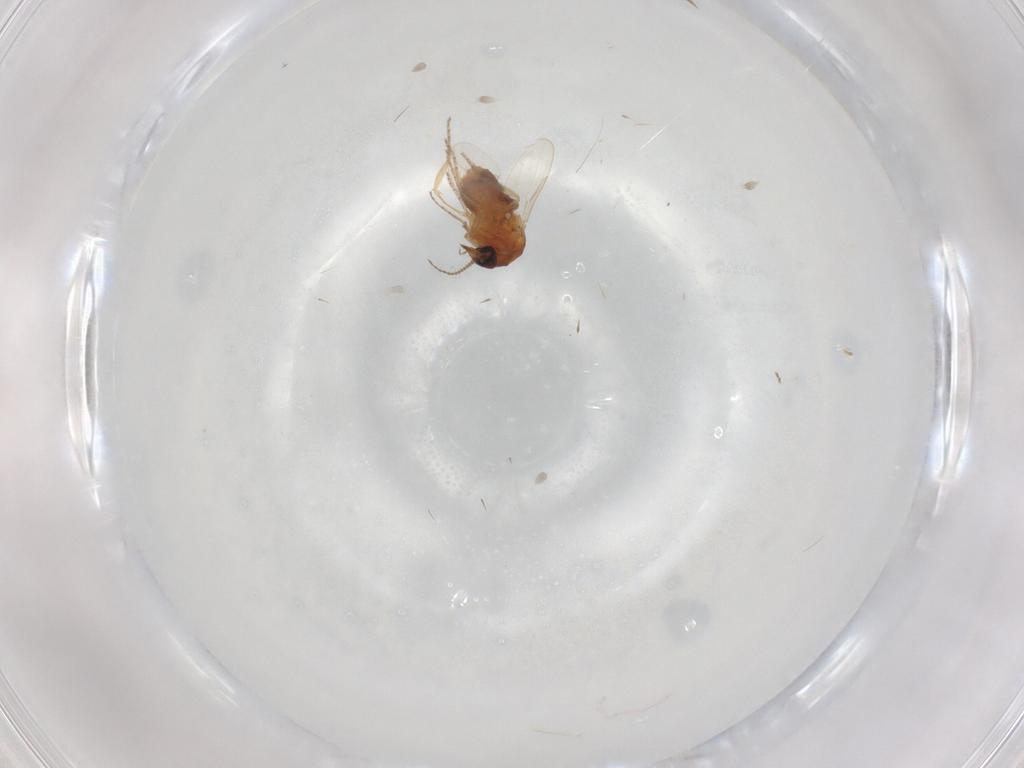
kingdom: Animalia
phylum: Arthropoda
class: Insecta
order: Diptera
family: Ceratopogonidae
